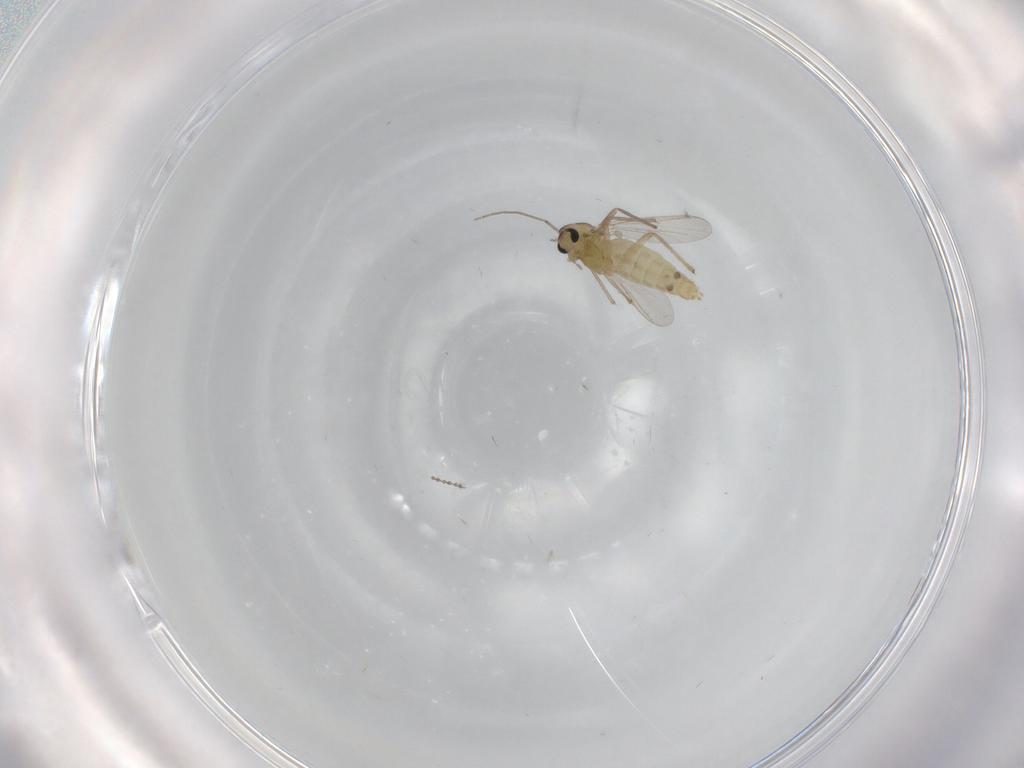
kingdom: Animalia
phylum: Arthropoda
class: Insecta
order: Diptera
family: Chironomidae
